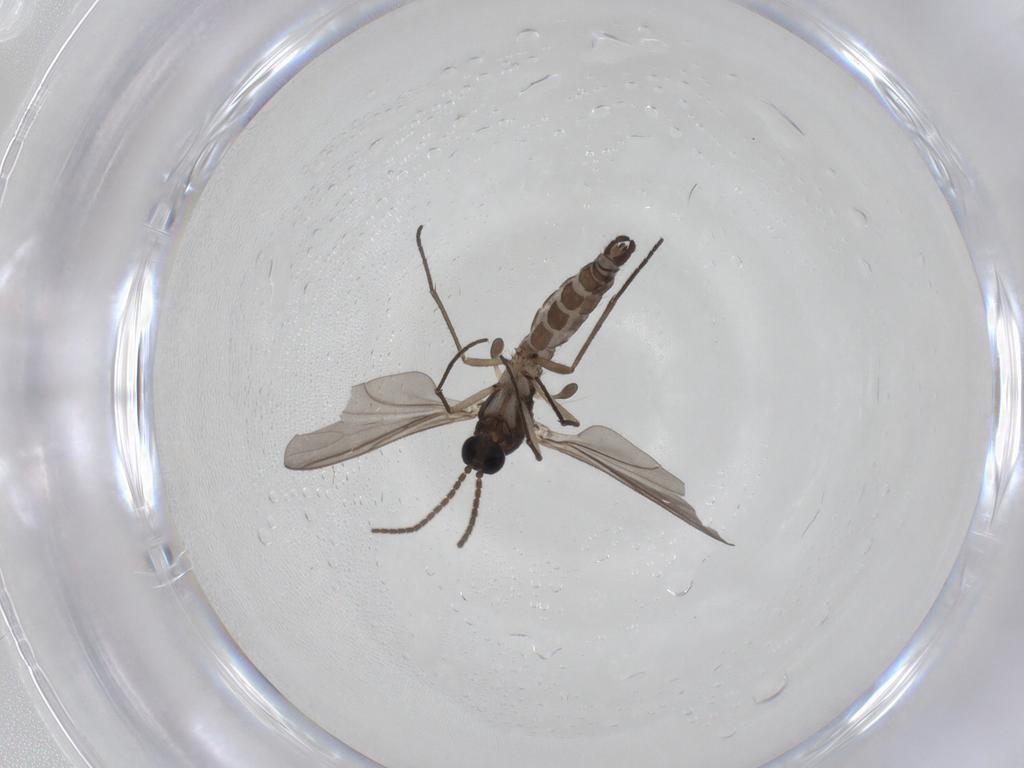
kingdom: Animalia
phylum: Arthropoda
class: Insecta
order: Diptera
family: Sciaridae
